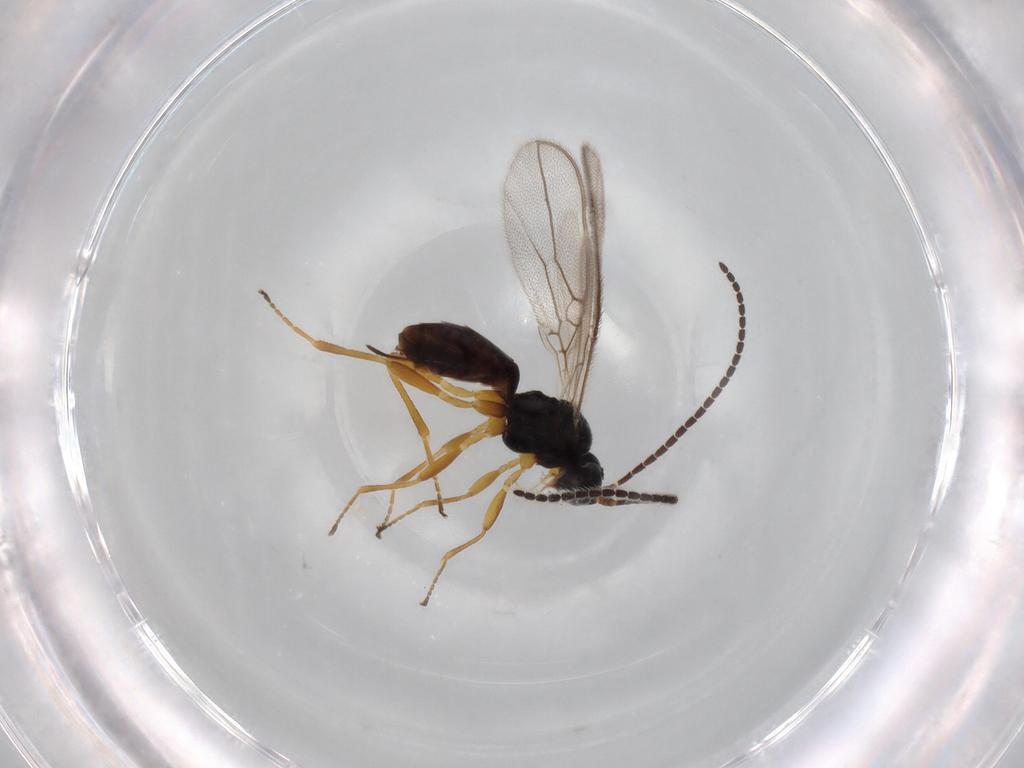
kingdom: Animalia
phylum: Arthropoda
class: Insecta
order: Hymenoptera
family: Braconidae
